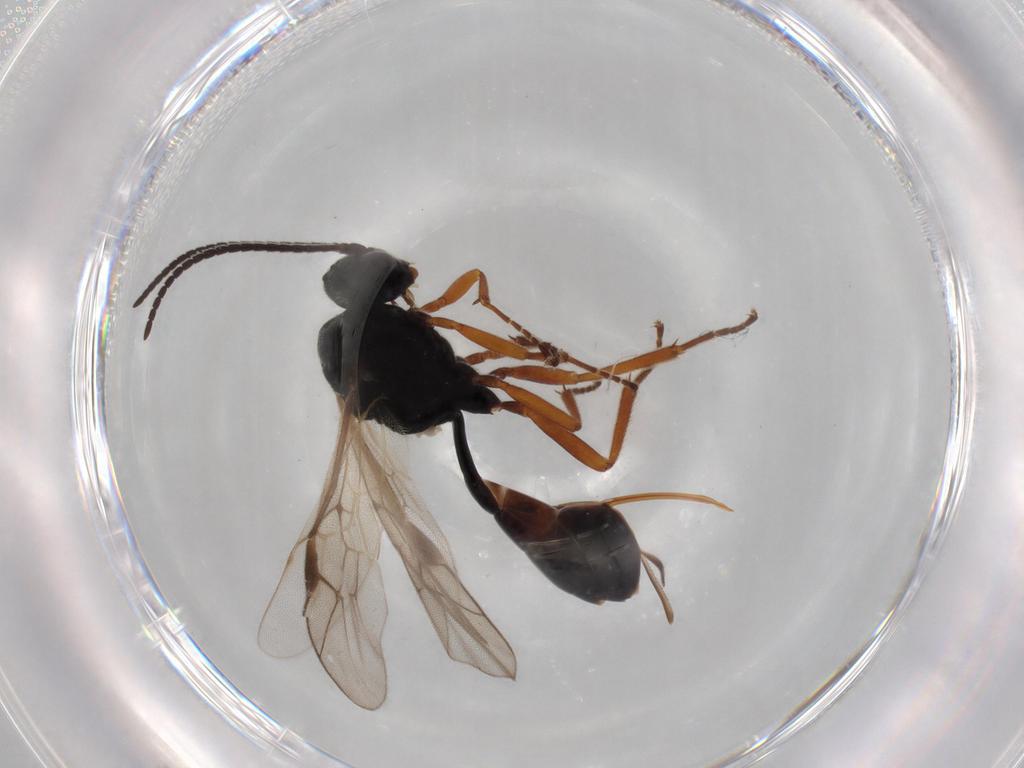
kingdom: Animalia
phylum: Arthropoda
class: Insecta
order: Hymenoptera
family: Ichneumonidae
